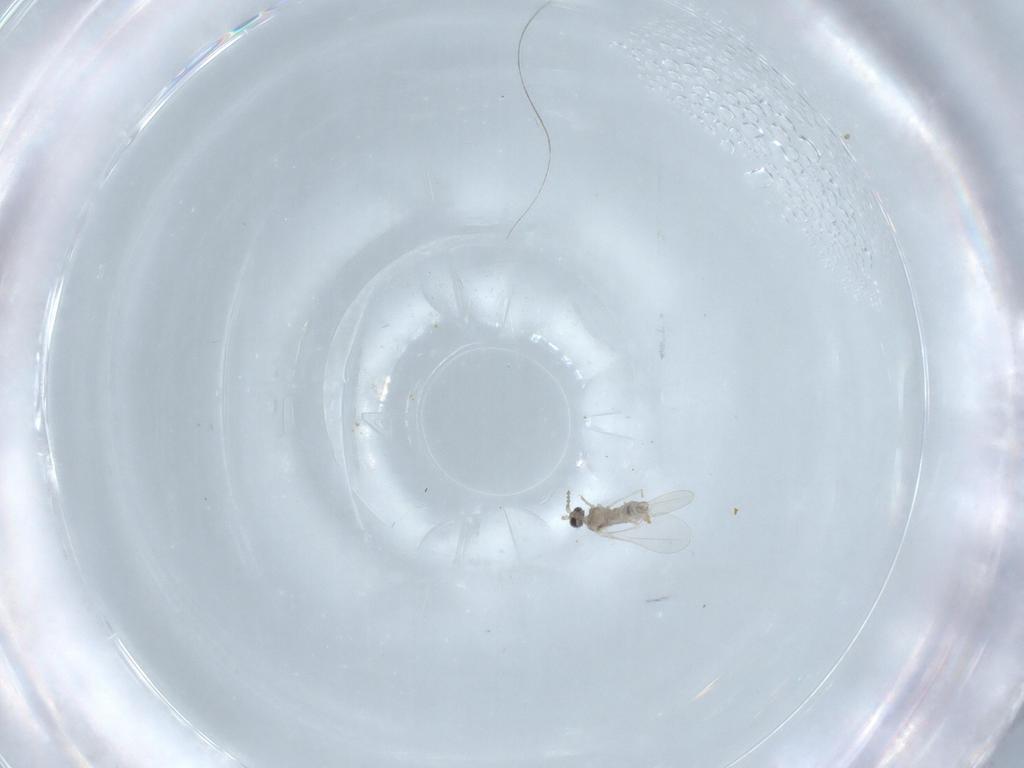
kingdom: Animalia
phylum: Arthropoda
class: Insecta
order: Diptera
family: Cecidomyiidae
